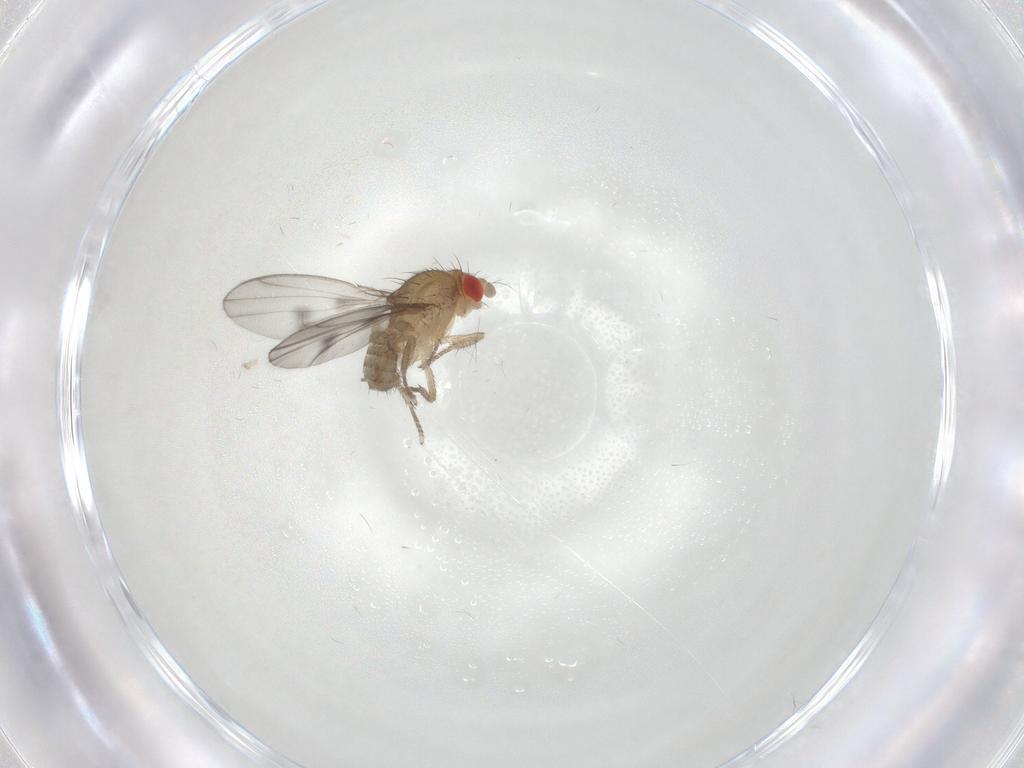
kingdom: Animalia
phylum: Arthropoda
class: Insecta
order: Diptera
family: Drosophilidae
